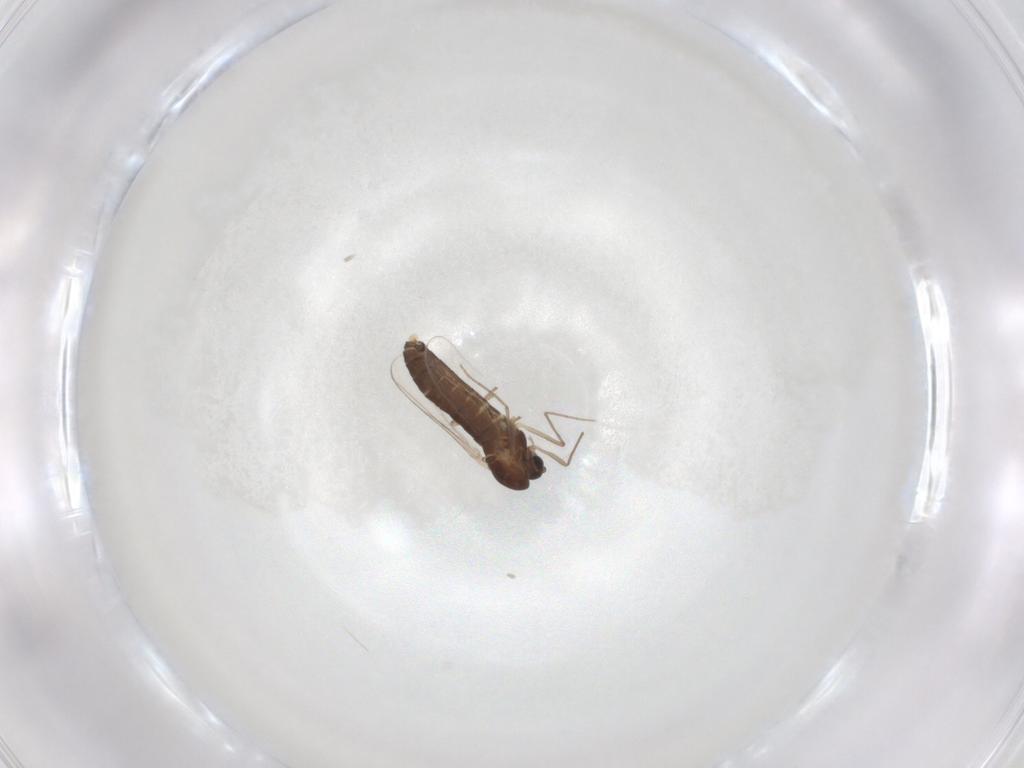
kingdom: Animalia
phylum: Arthropoda
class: Insecta
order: Diptera
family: Chironomidae
